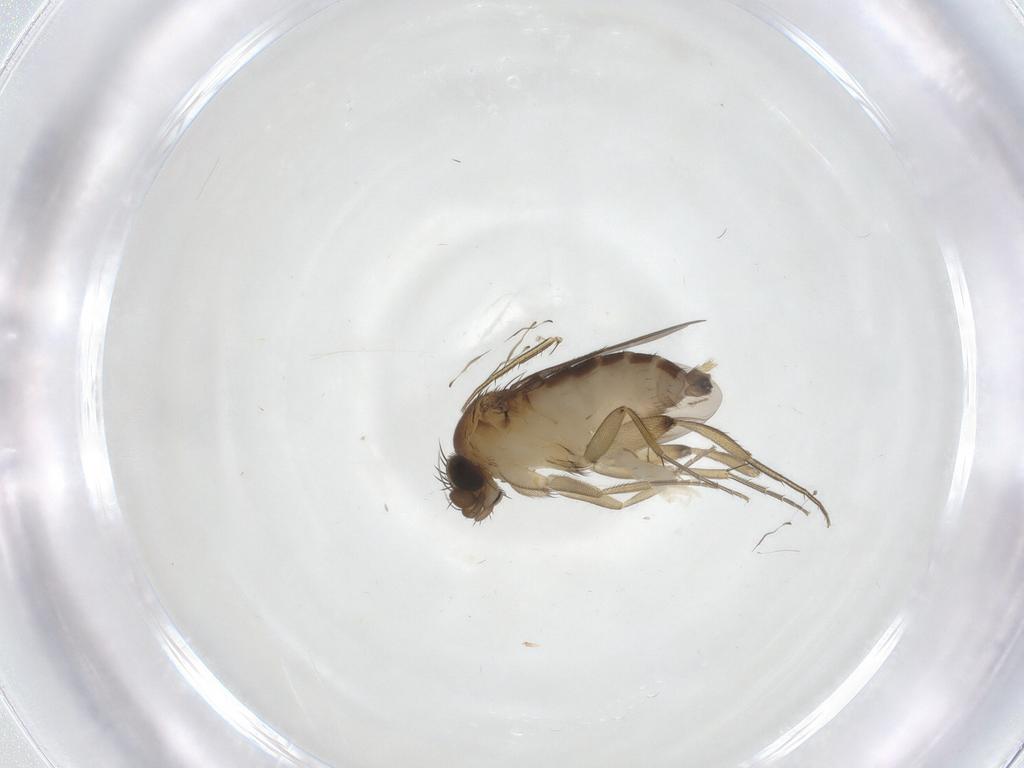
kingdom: Animalia
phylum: Arthropoda
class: Insecta
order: Diptera
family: Phoridae
